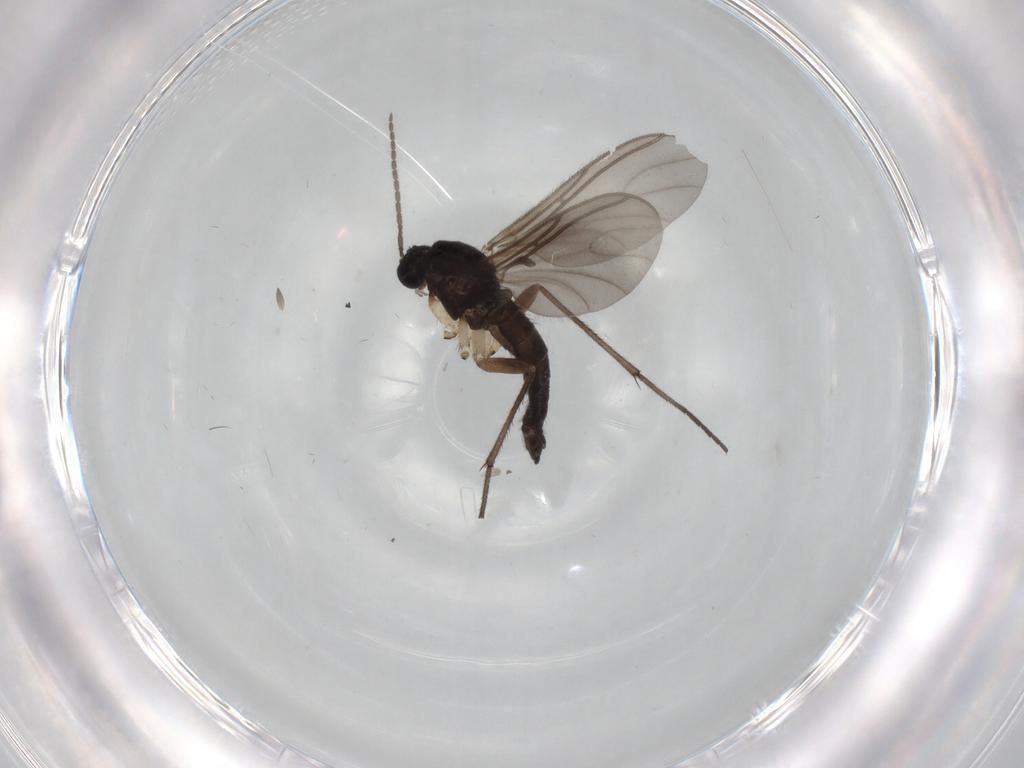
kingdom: Animalia
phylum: Arthropoda
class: Insecta
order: Diptera
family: Sciaridae
